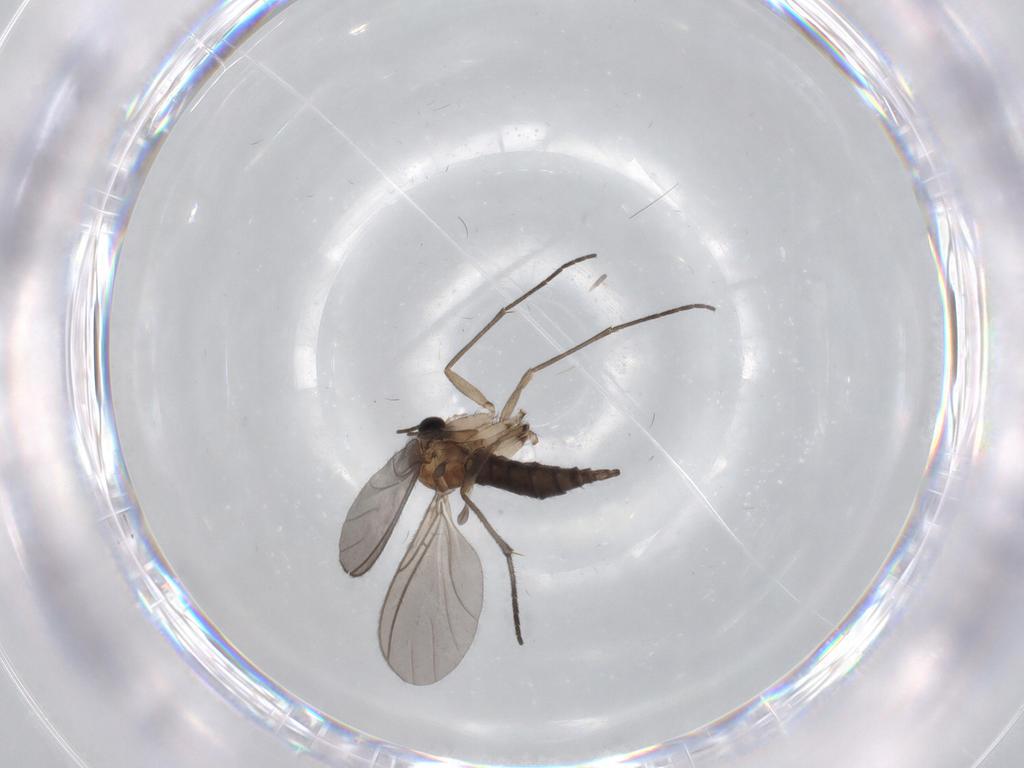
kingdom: Animalia
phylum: Arthropoda
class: Insecta
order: Diptera
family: Sciaridae
